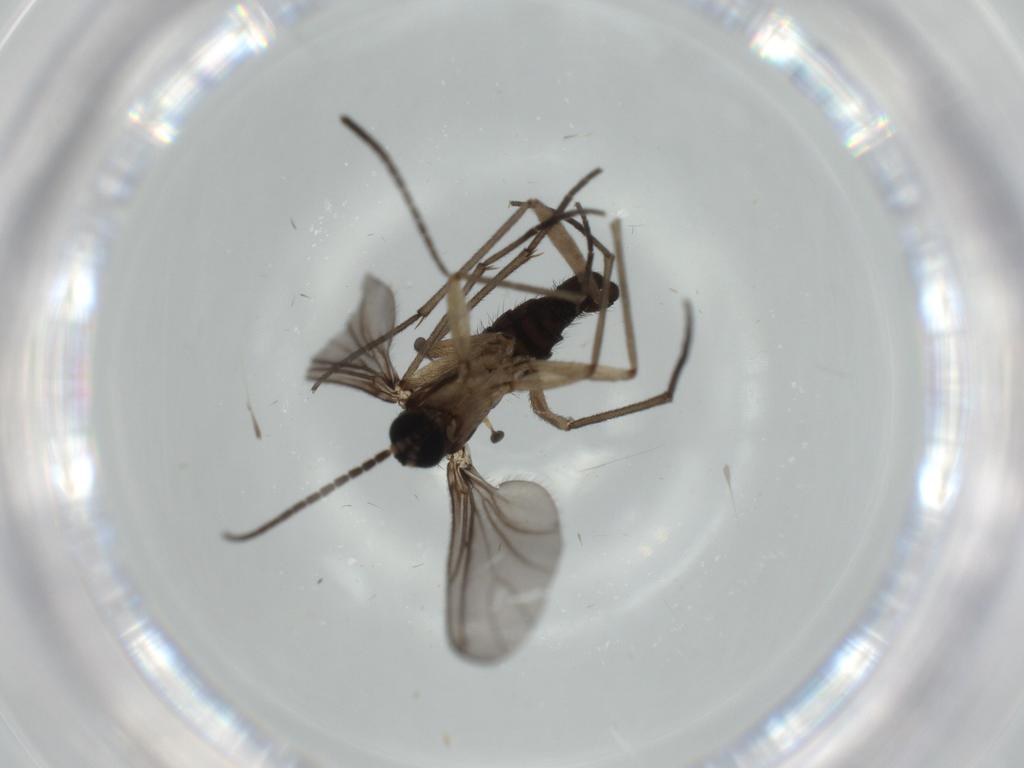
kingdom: Animalia
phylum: Arthropoda
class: Insecta
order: Diptera
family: Sciaridae
